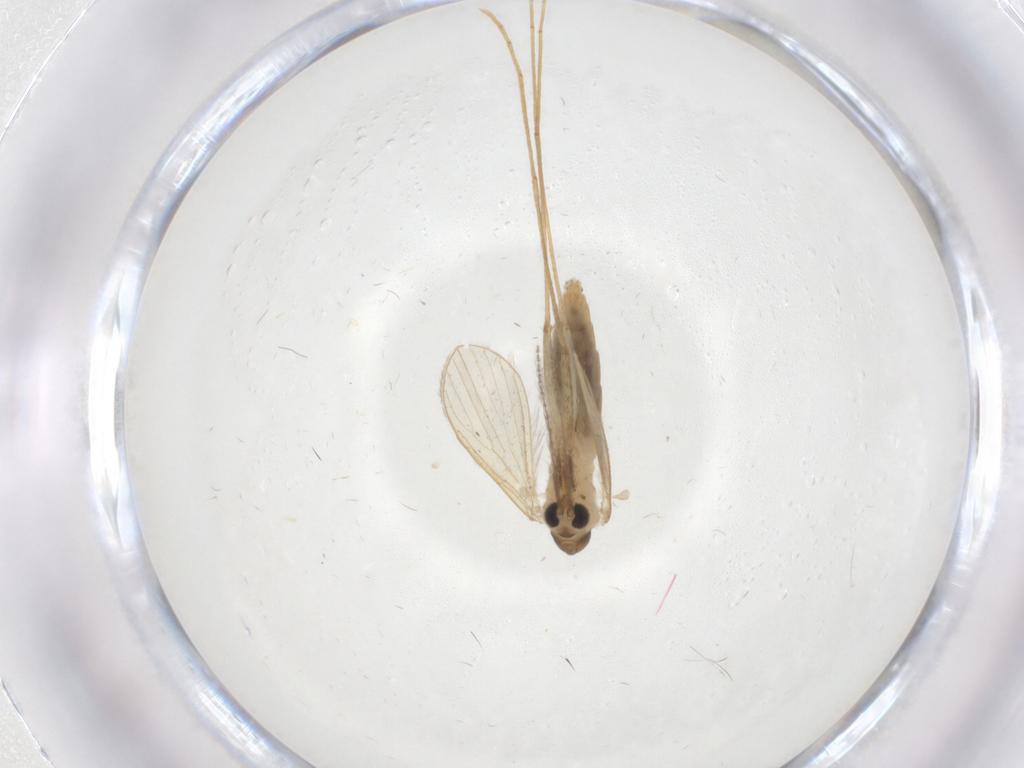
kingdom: Animalia
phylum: Arthropoda
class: Insecta
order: Diptera
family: Psychodidae
